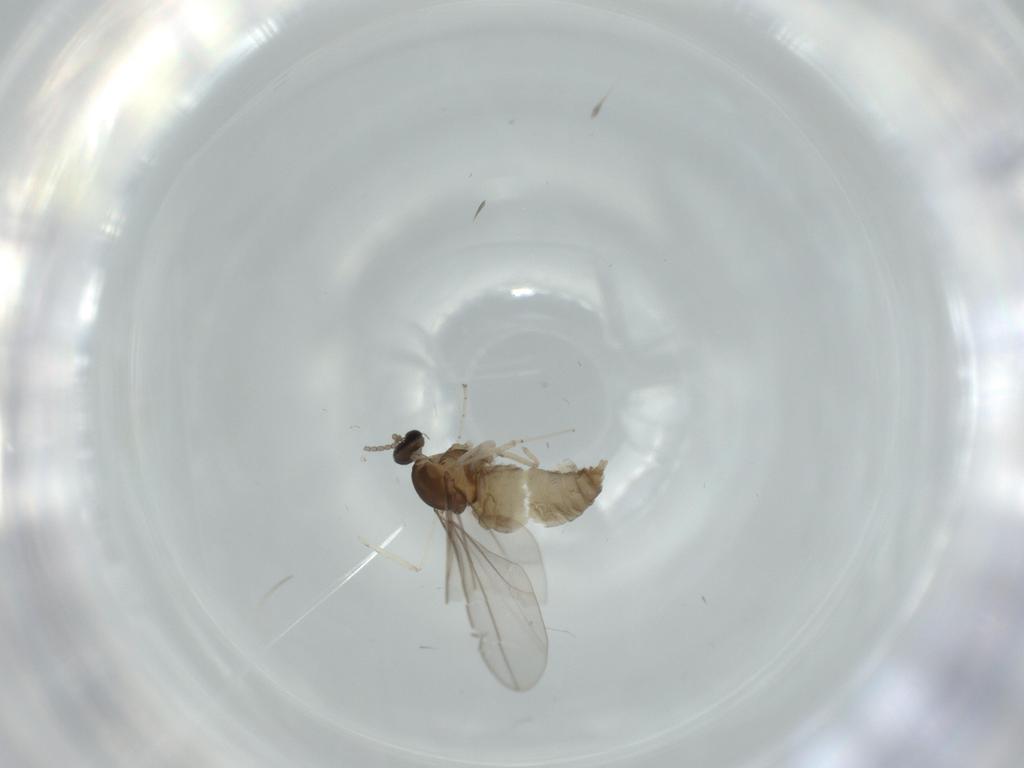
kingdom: Animalia
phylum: Arthropoda
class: Insecta
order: Diptera
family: Cecidomyiidae
